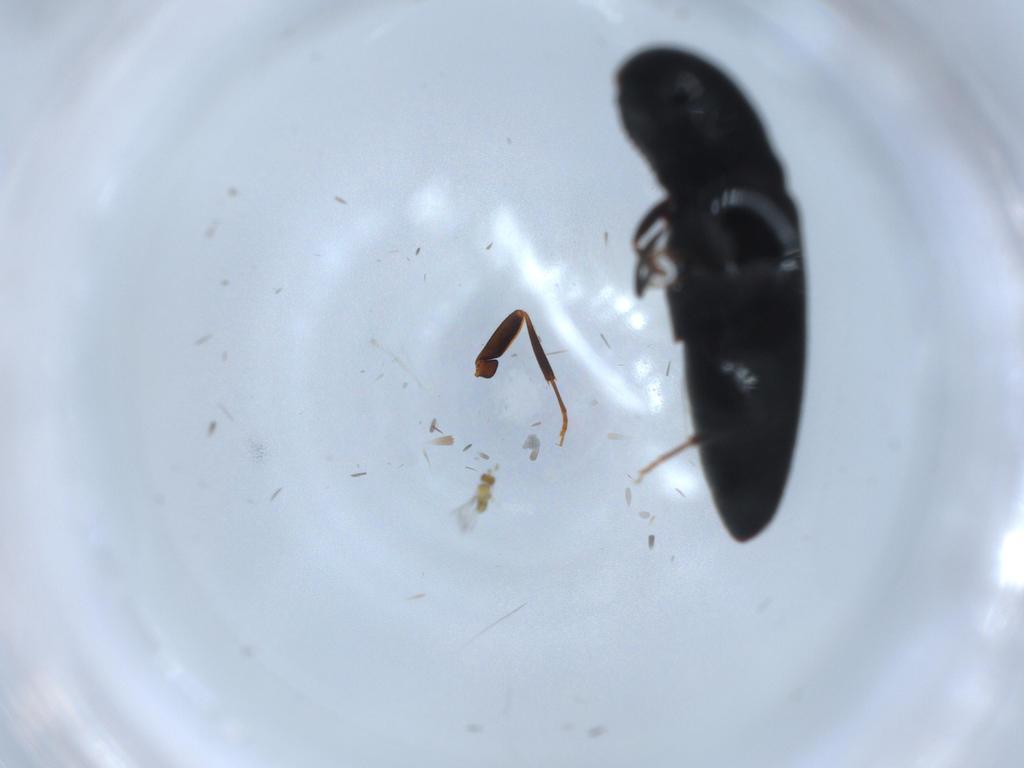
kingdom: Animalia
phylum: Arthropoda
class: Insecta
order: Coleoptera
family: Eucnemidae
